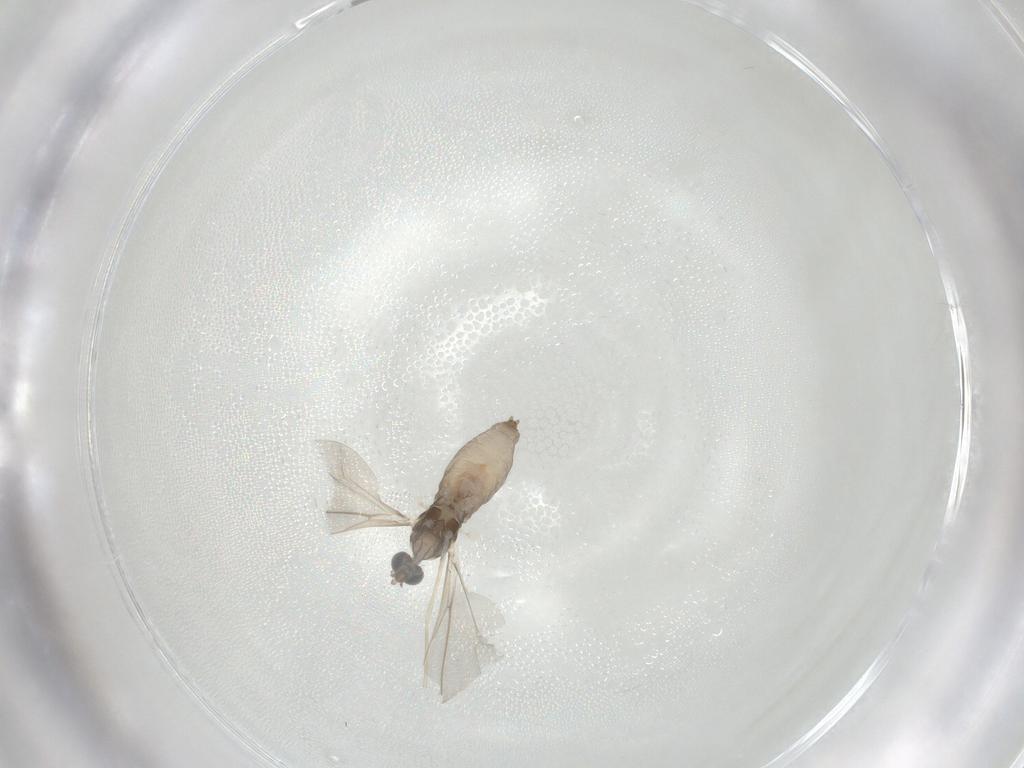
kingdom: Animalia
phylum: Arthropoda
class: Insecta
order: Diptera
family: Cecidomyiidae
